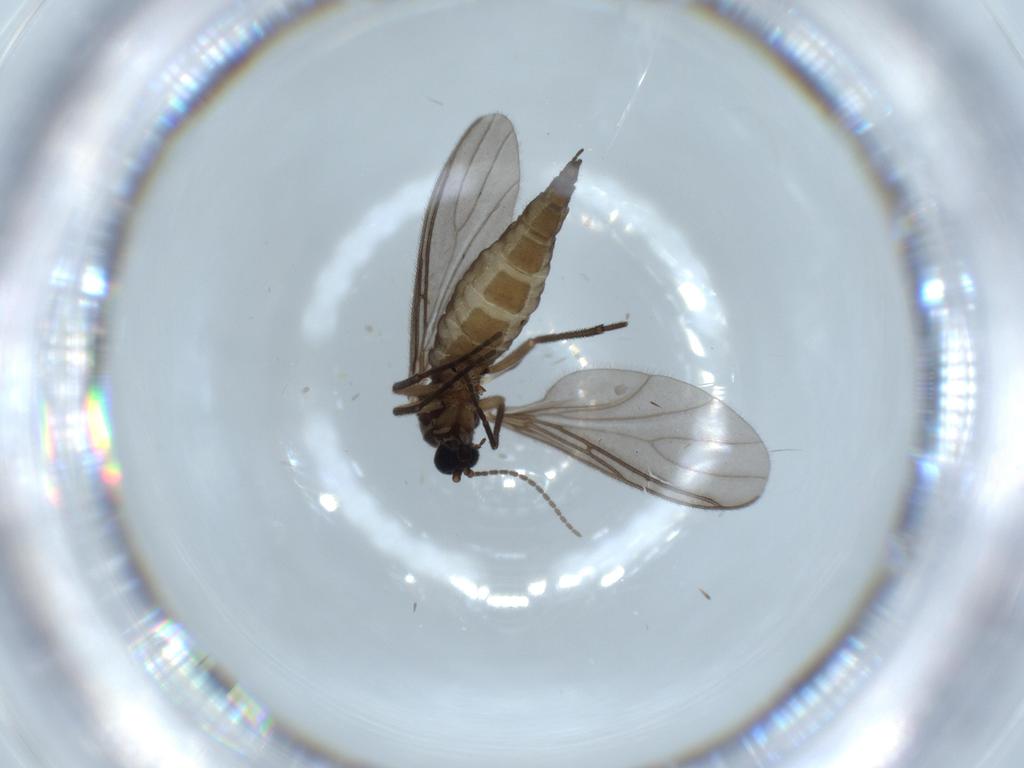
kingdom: Animalia
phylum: Arthropoda
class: Insecta
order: Diptera
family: Sciaridae
